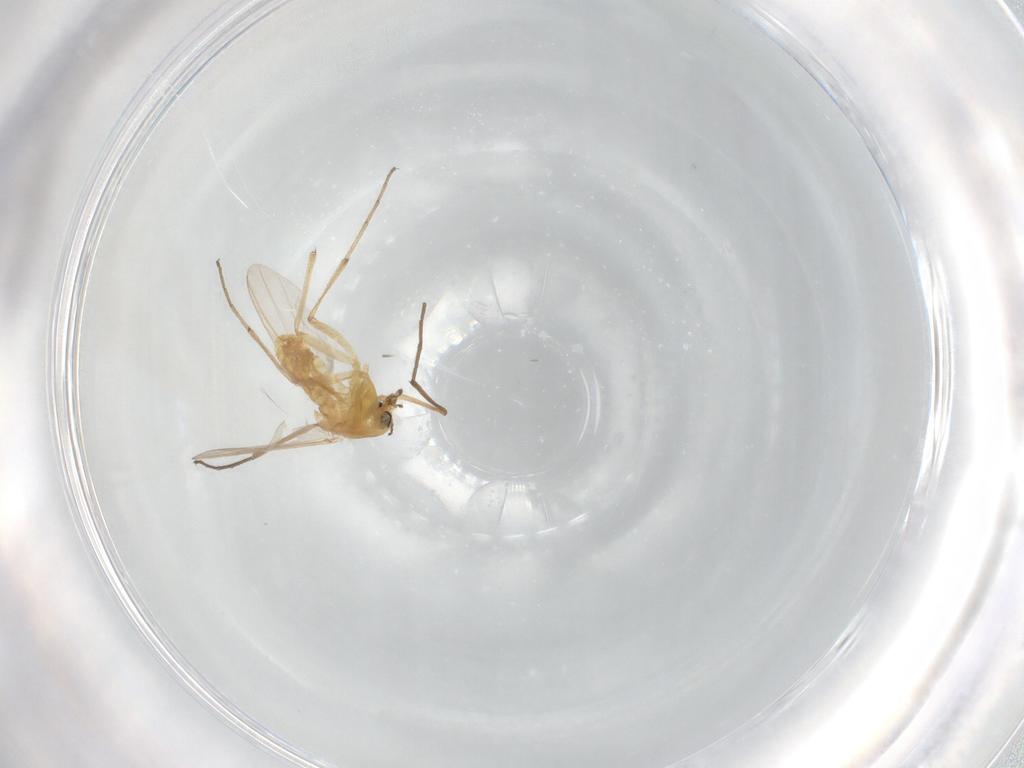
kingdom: Animalia
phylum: Arthropoda
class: Insecta
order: Diptera
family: Chironomidae
